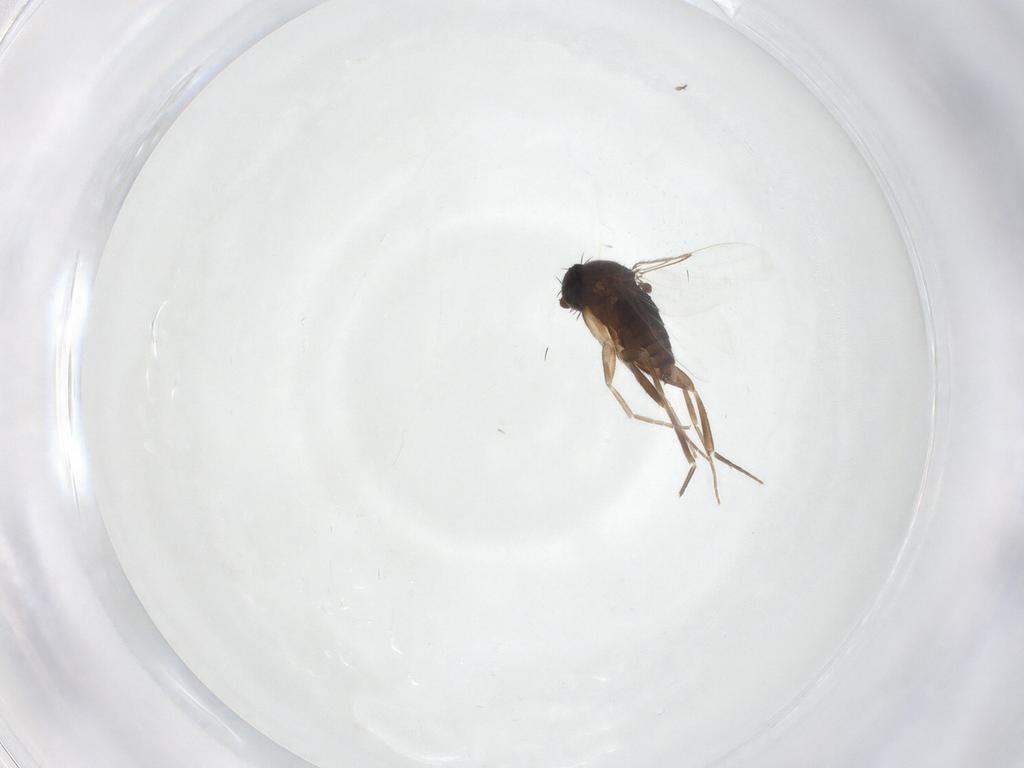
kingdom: Animalia
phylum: Arthropoda
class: Insecta
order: Diptera
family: Phoridae
